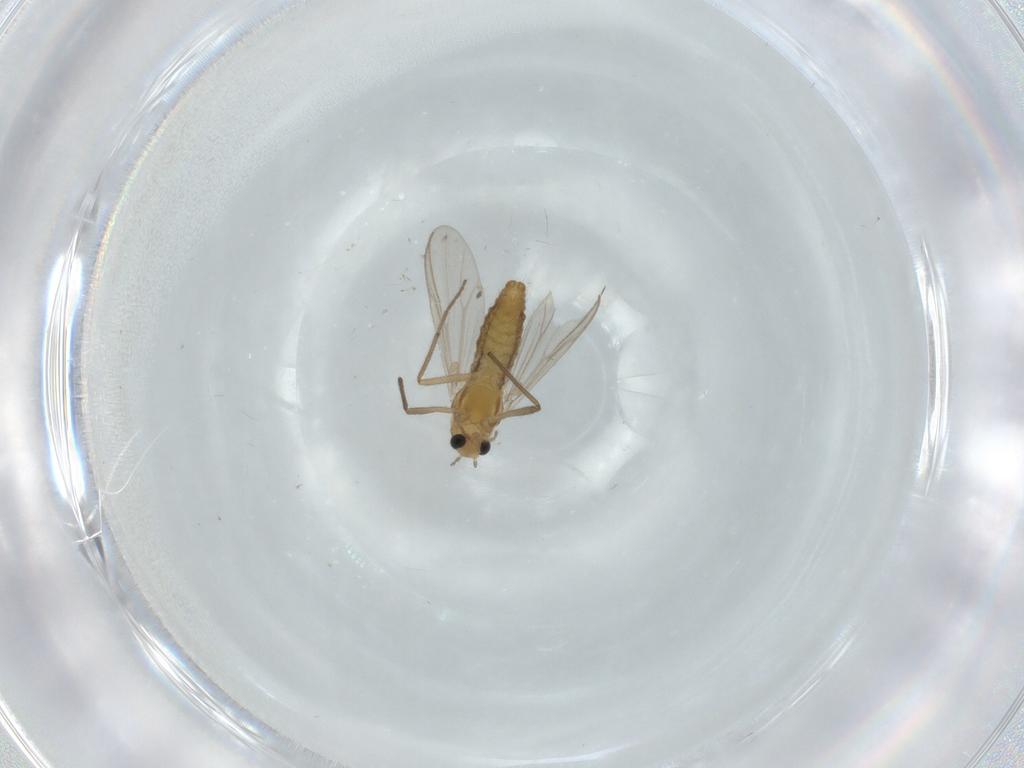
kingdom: Animalia
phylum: Arthropoda
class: Insecta
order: Diptera
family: Chironomidae
